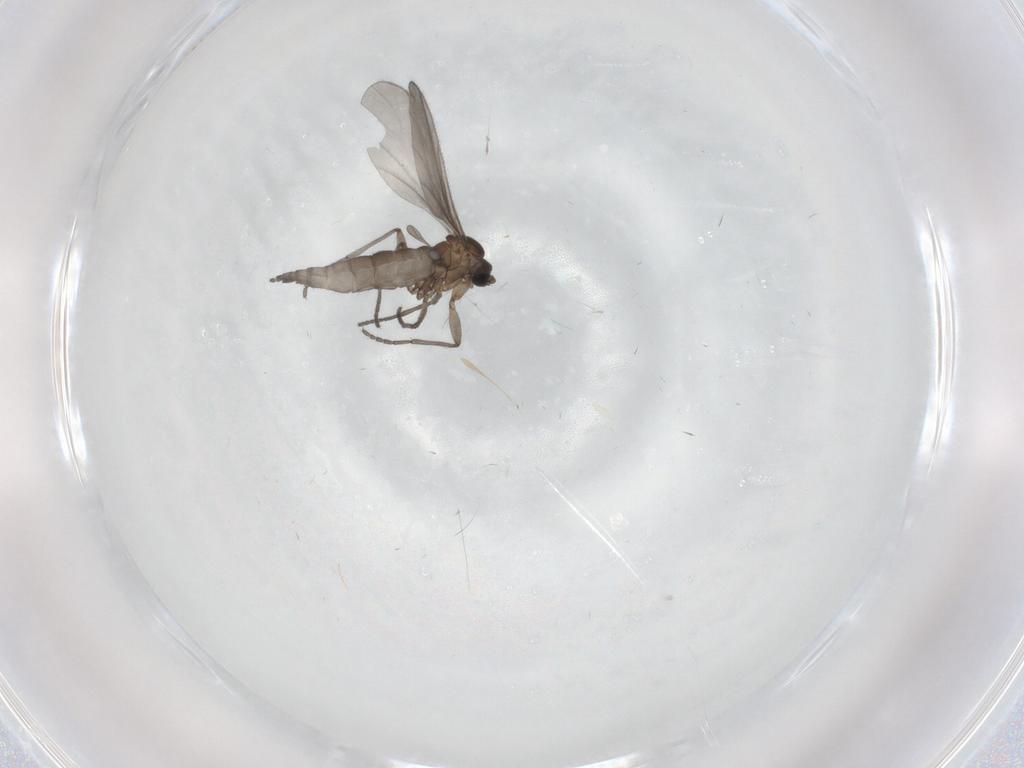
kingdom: Animalia
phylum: Arthropoda
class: Insecta
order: Diptera
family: Sciaridae
